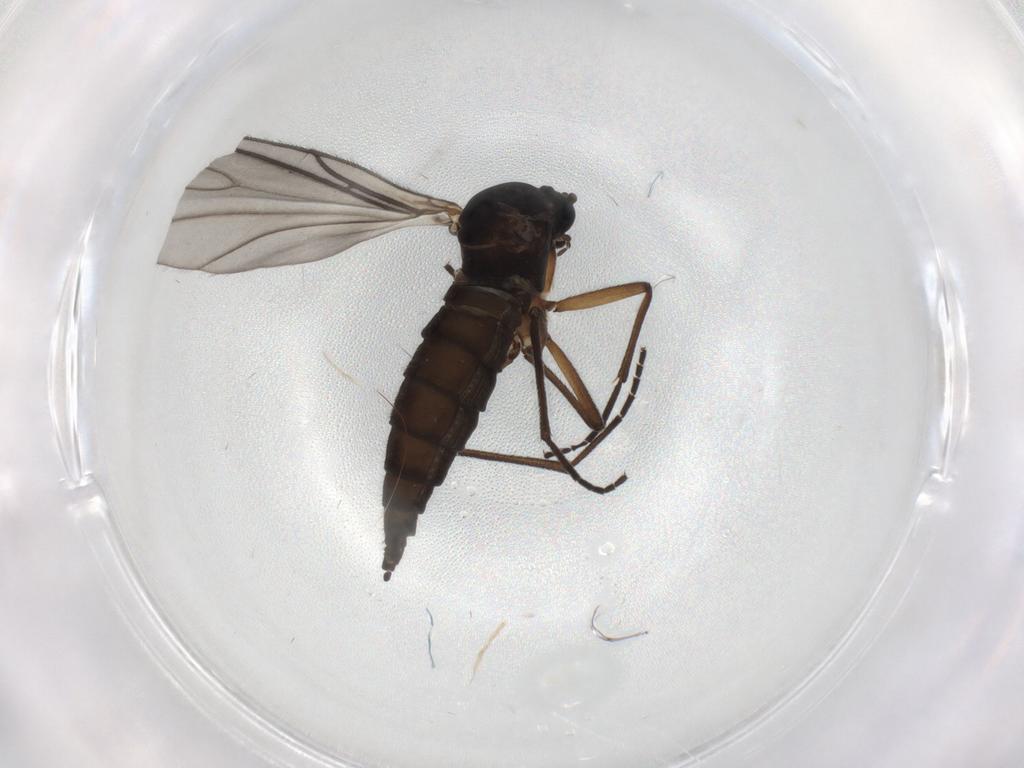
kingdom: Animalia
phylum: Arthropoda
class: Insecta
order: Diptera
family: Sciaridae
